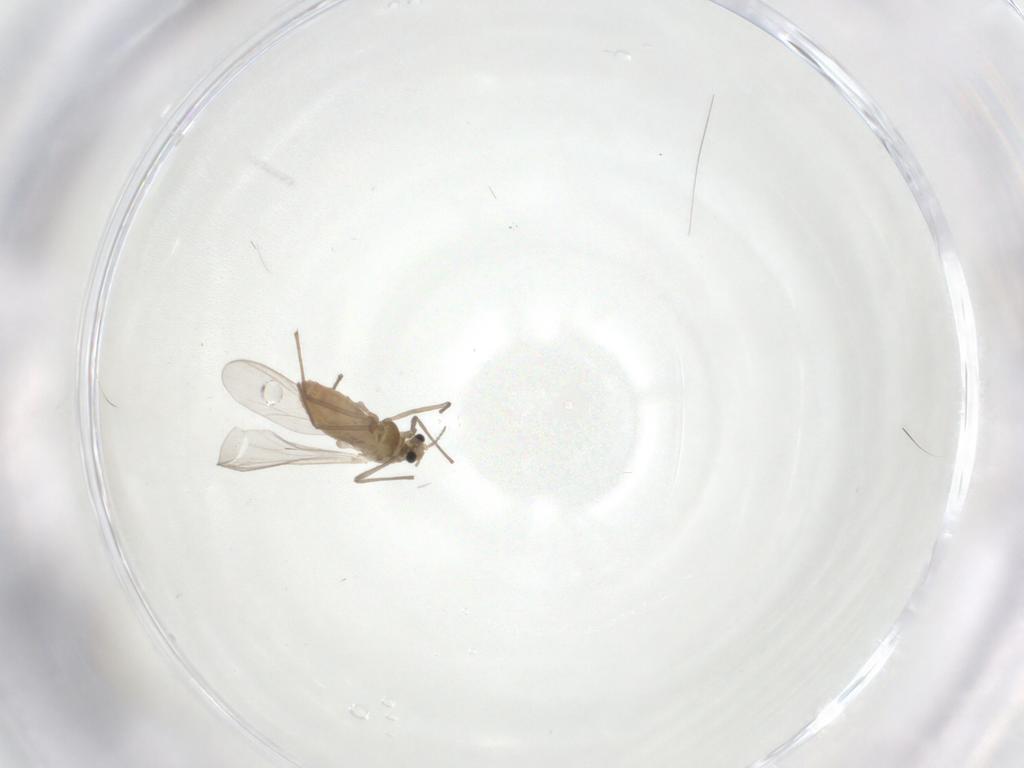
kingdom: Animalia
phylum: Arthropoda
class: Insecta
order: Diptera
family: Chironomidae
